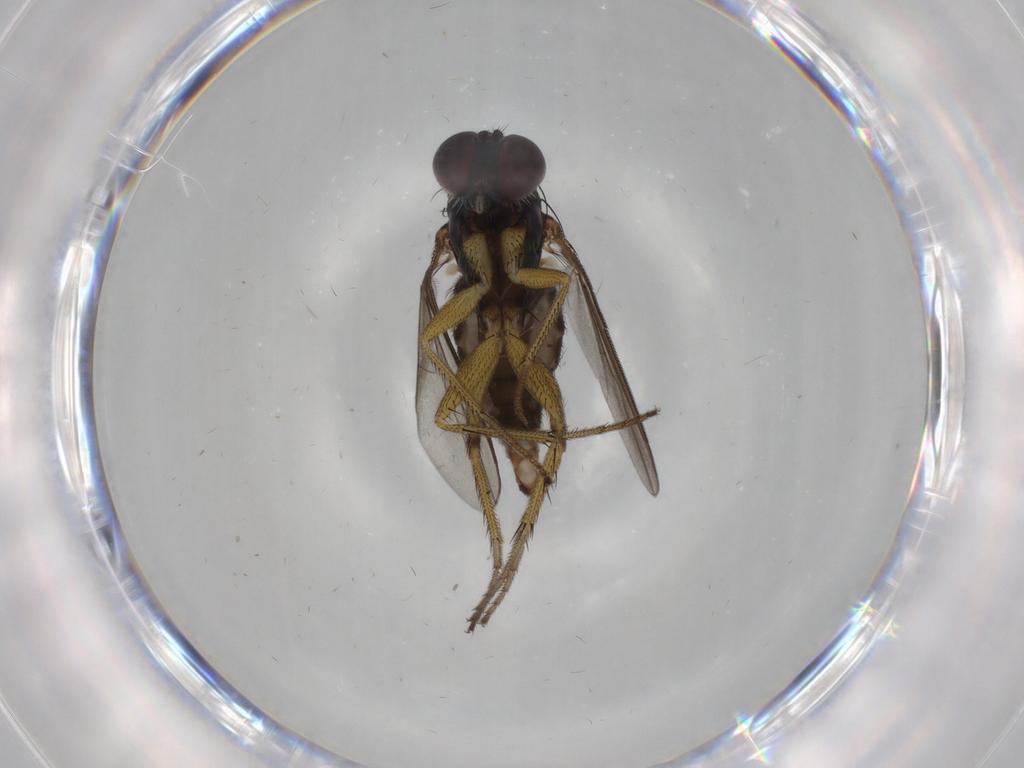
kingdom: Animalia
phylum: Arthropoda
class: Insecta
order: Diptera
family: Dolichopodidae
